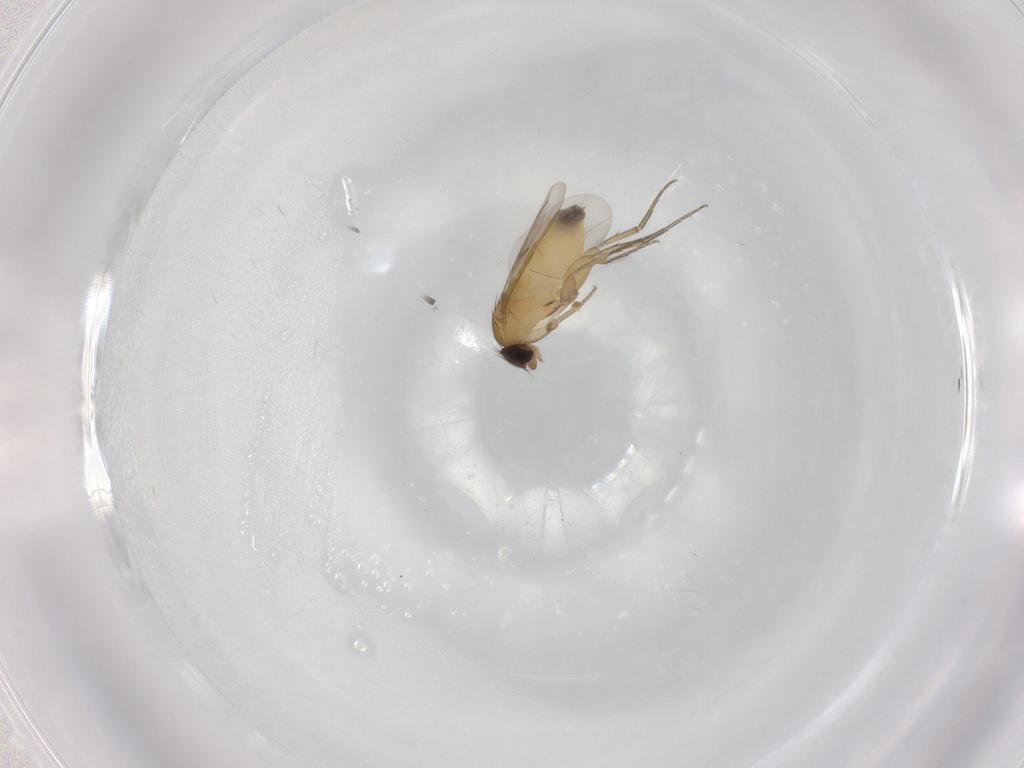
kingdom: Animalia
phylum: Arthropoda
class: Insecta
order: Diptera
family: Phoridae
